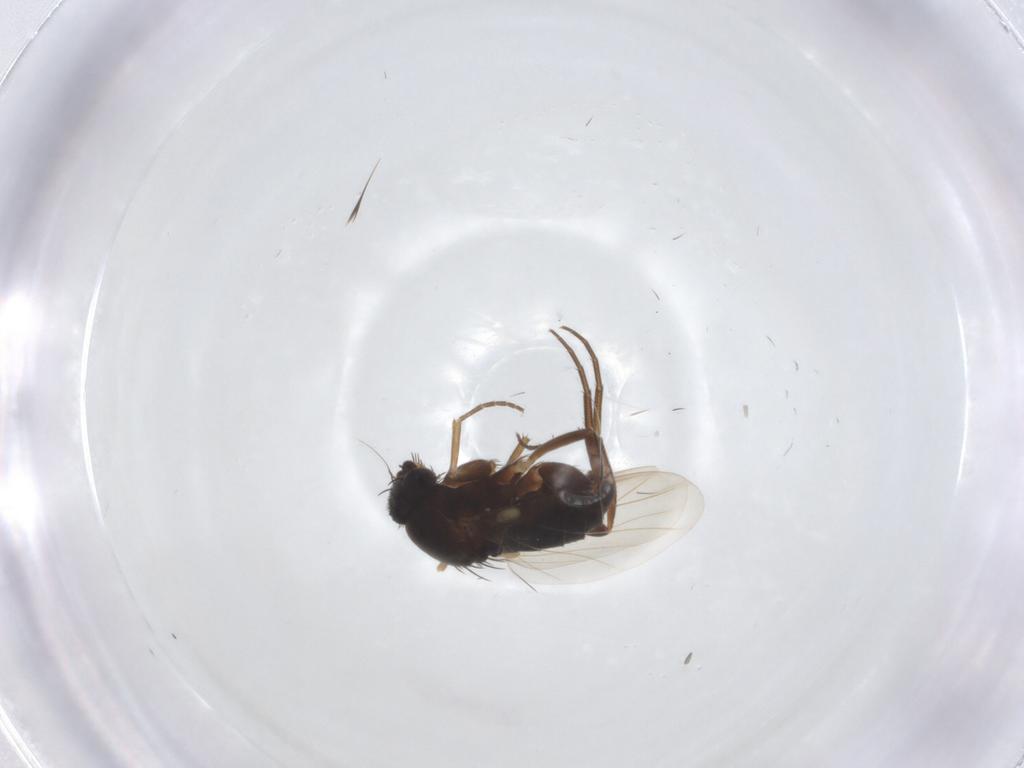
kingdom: Animalia
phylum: Arthropoda
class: Insecta
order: Diptera
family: Phoridae
